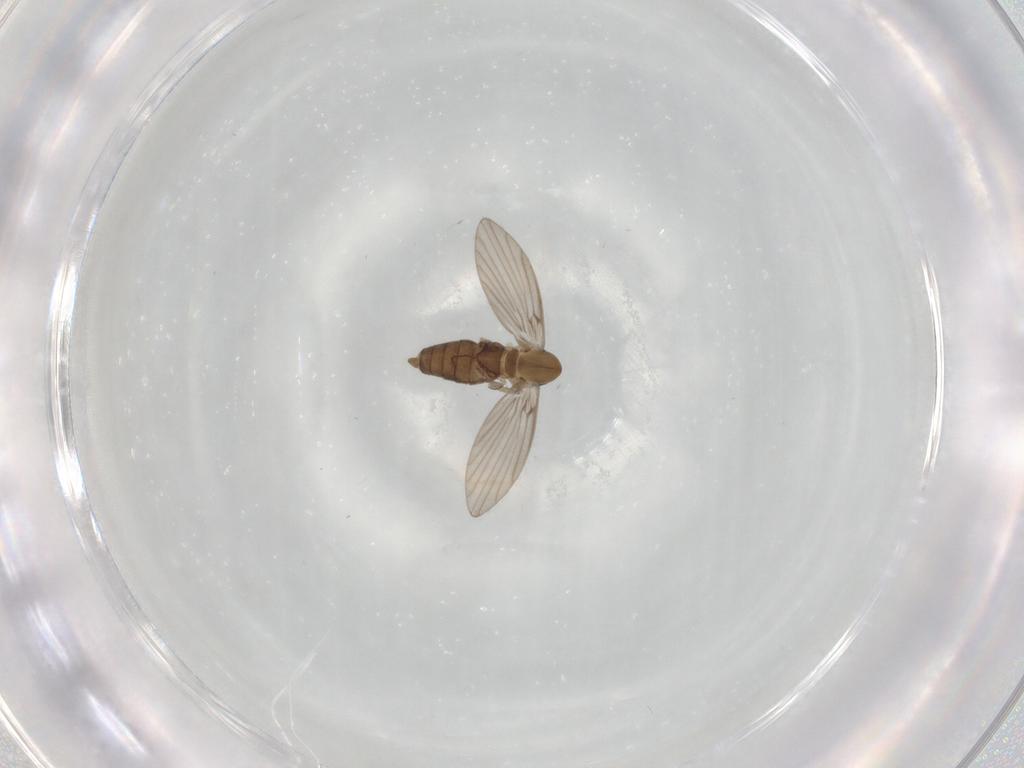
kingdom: Animalia
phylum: Arthropoda
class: Insecta
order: Diptera
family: Psychodidae
